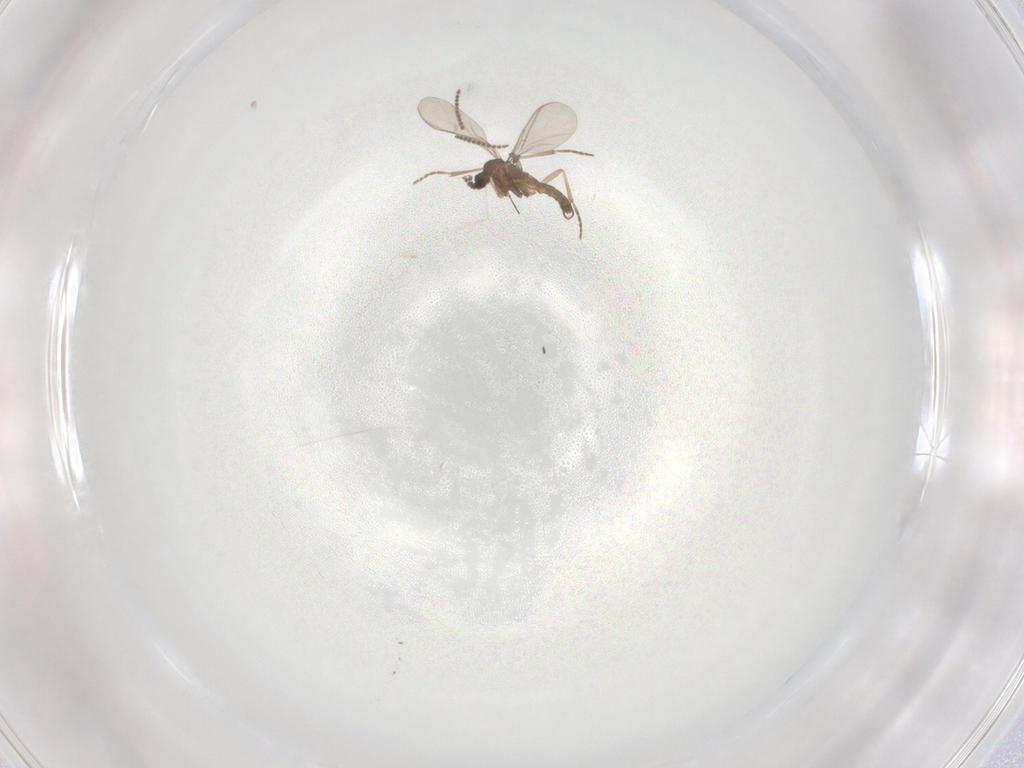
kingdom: Animalia
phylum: Arthropoda
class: Insecta
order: Diptera
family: Sciaridae
